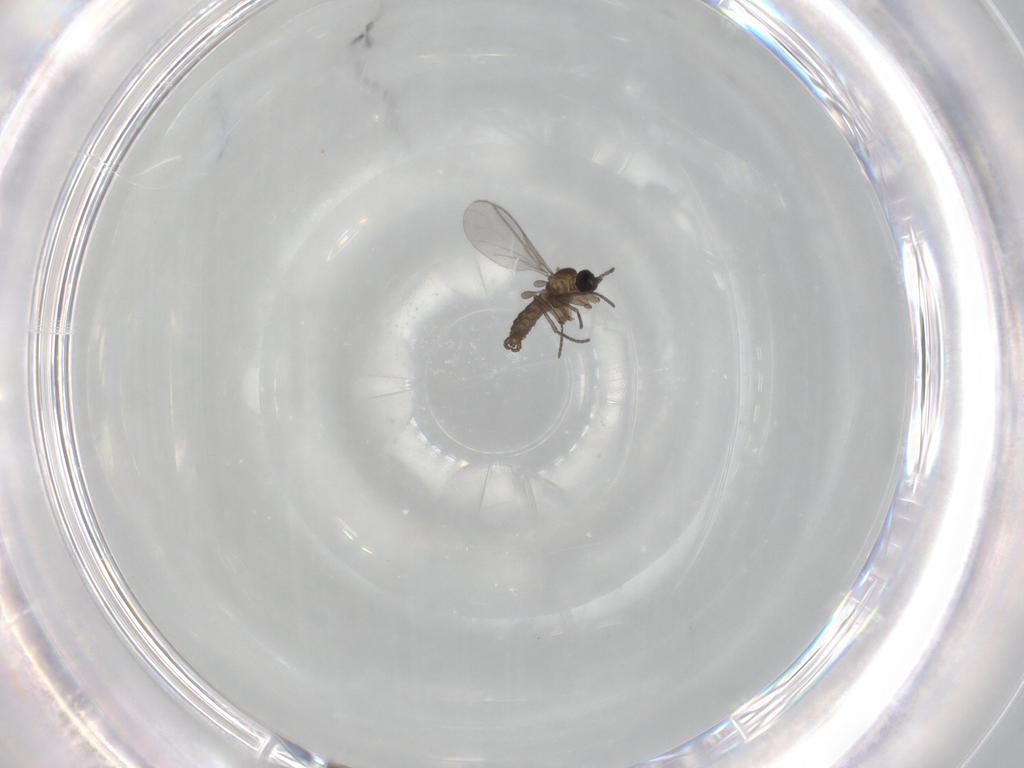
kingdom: Animalia
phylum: Arthropoda
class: Insecta
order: Diptera
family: Sciaridae
